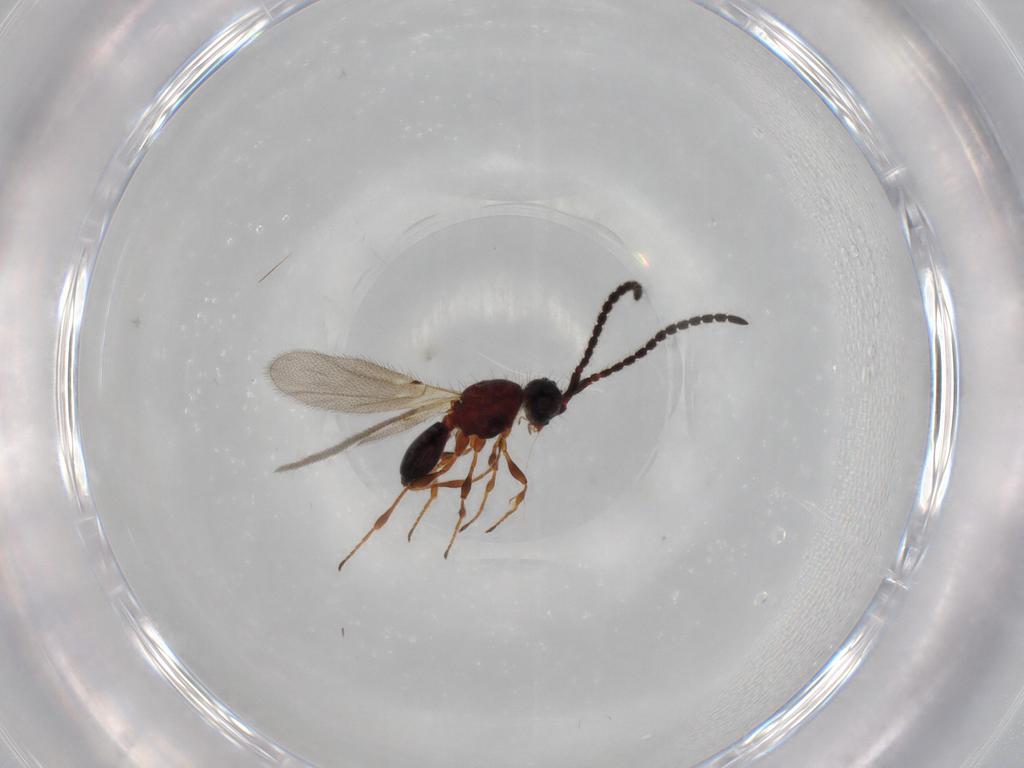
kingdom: Animalia
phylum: Arthropoda
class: Insecta
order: Hymenoptera
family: Diapriidae
